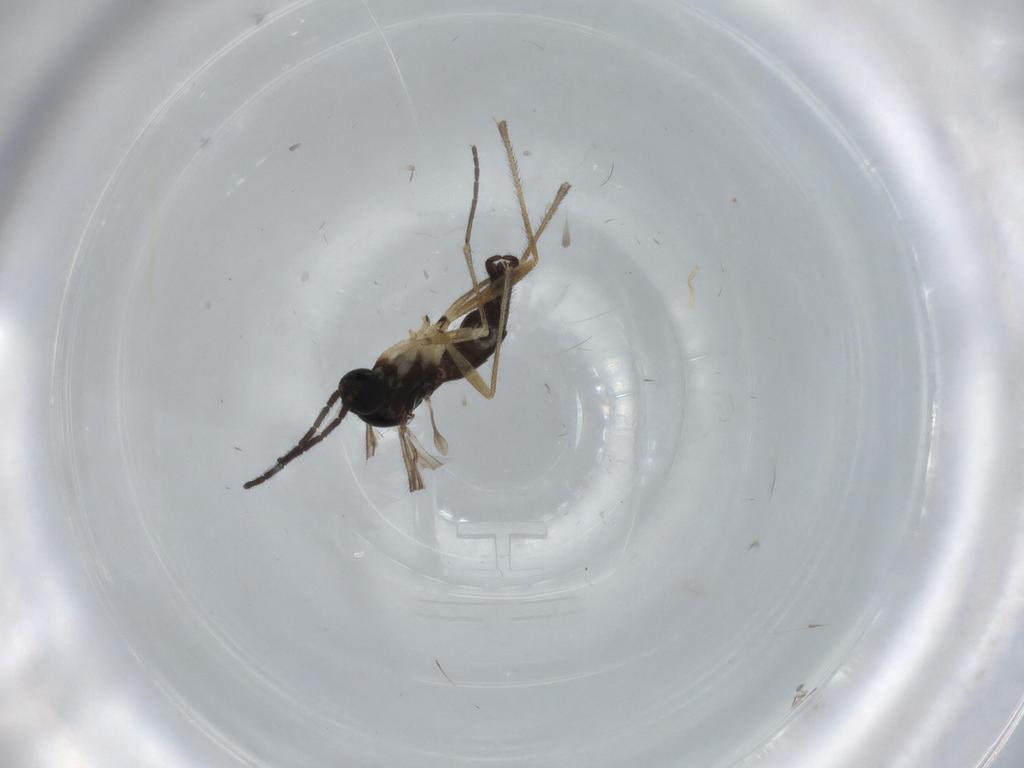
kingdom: Animalia
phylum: Arthropoda
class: Insecta
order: Diptera
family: Sciaridae
